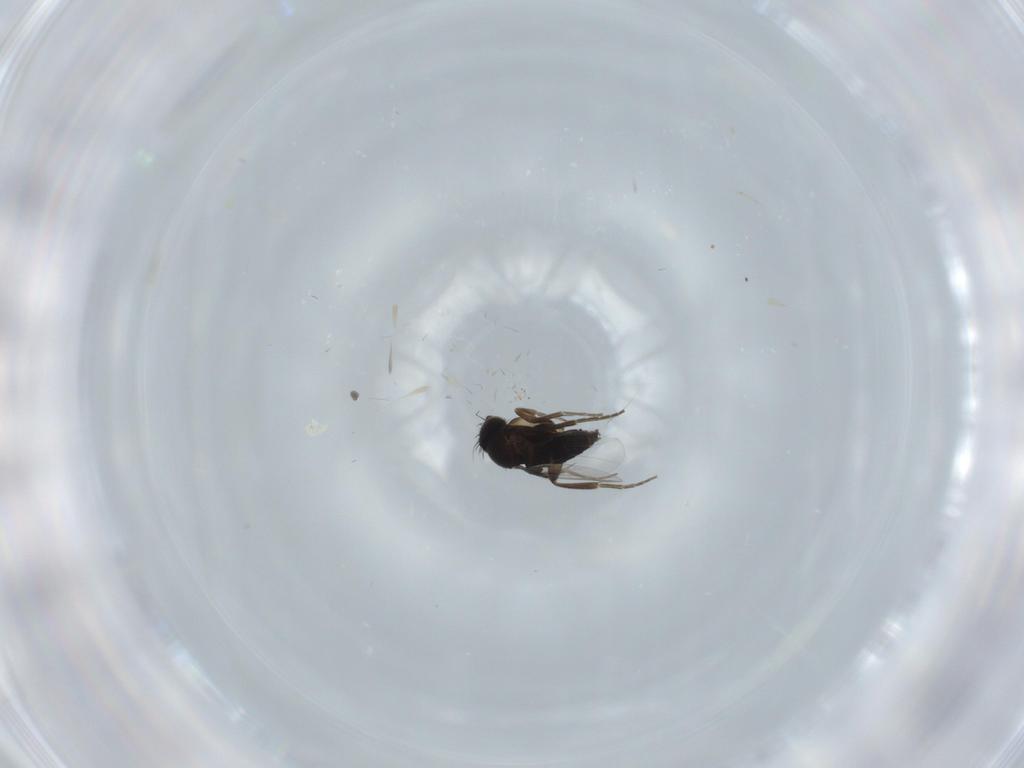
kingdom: Animalia
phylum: Arthropoda
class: Insecta
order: Diptera
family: Phoridae
